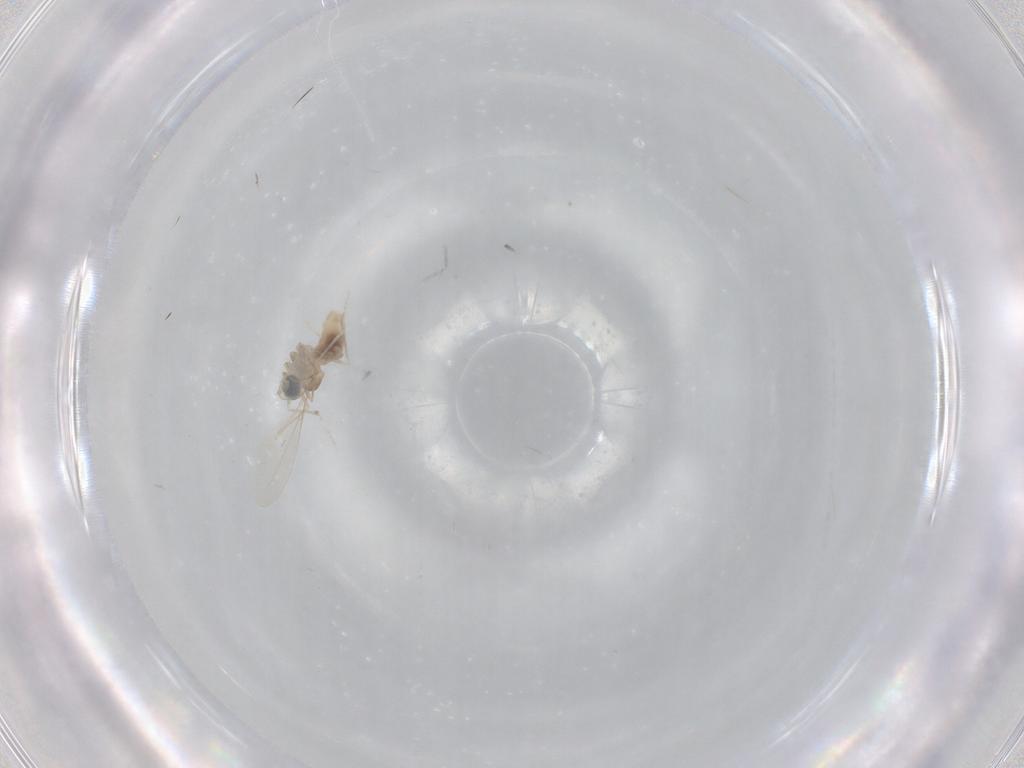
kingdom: Animalia
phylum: Arthropoda
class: Insecta
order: Diptera
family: Cecidomyiidae
